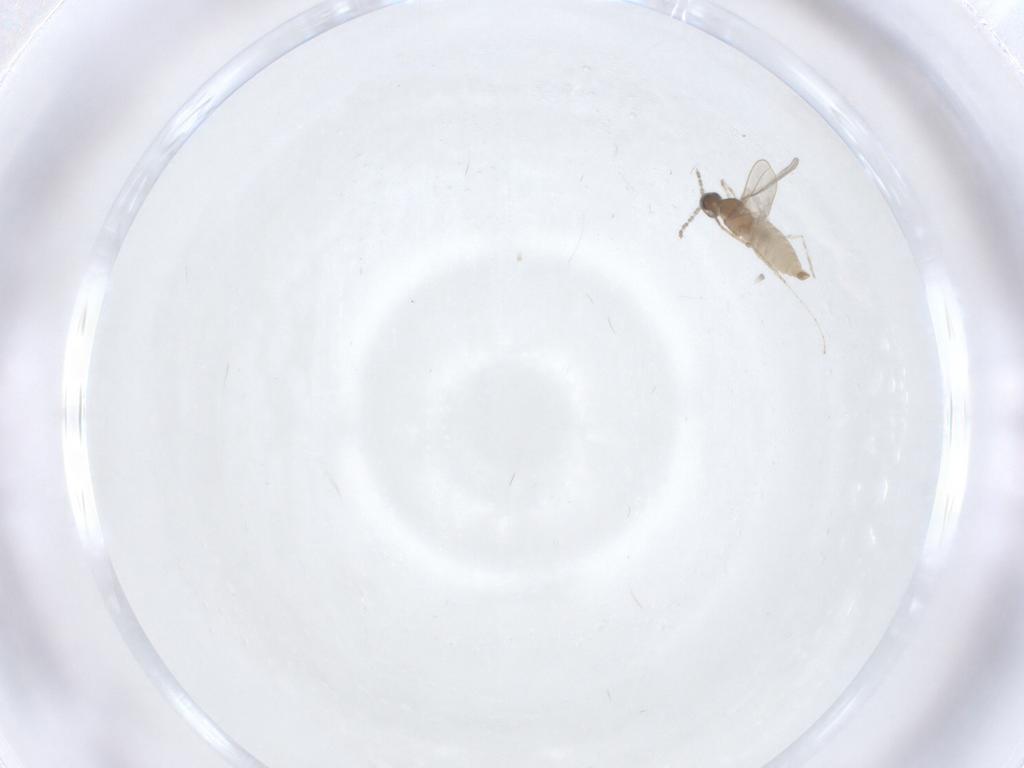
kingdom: Animalia
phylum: Arthropoda
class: Insecta
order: Diptera
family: Cecidomyiidae
